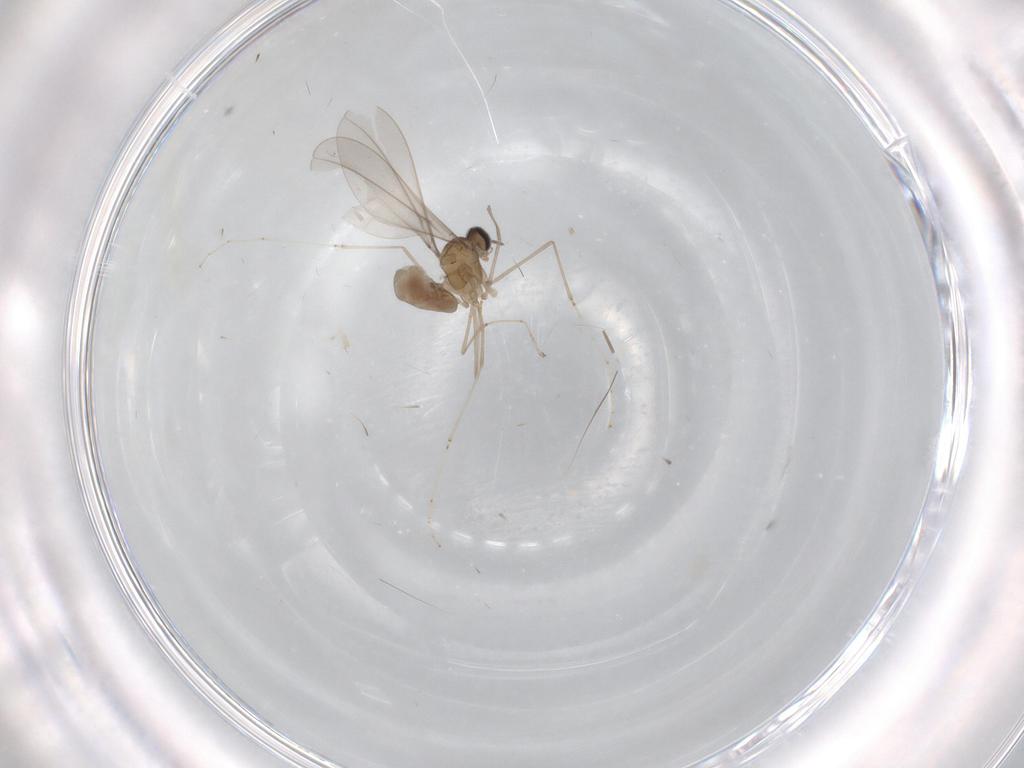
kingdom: Animalia
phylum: Arthropoda
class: Insecta
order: Diptera
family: Cecidomyiidae
